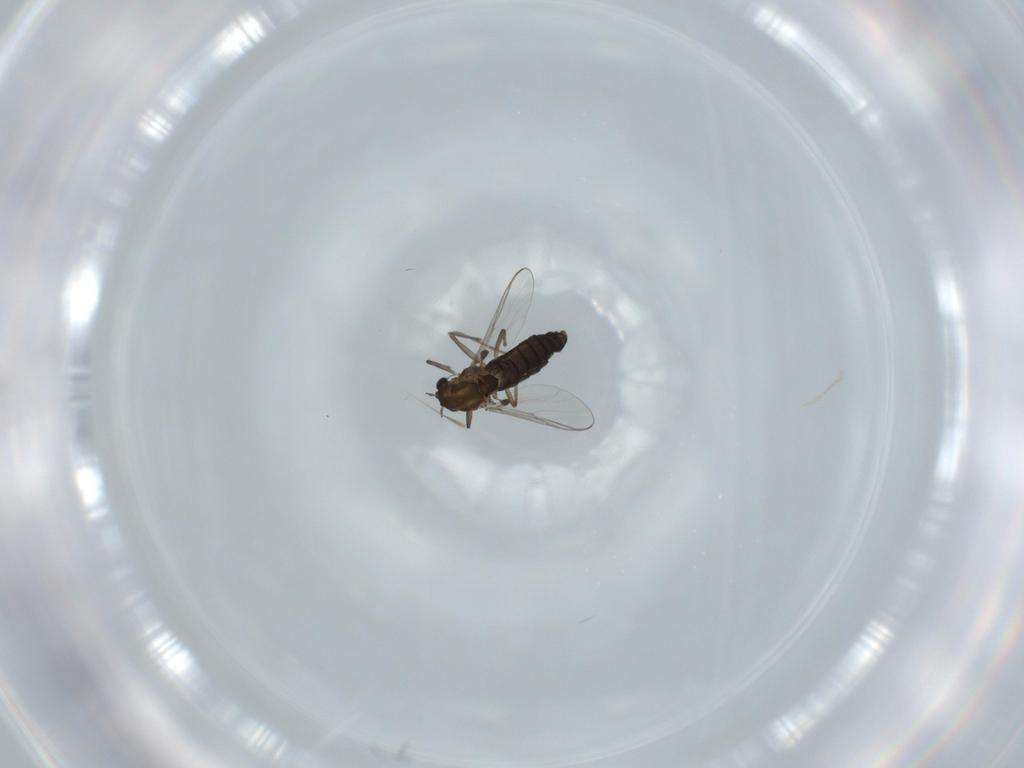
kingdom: Animalia
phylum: Arthropoda
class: Insecta
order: Diptera
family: Chironomidae
